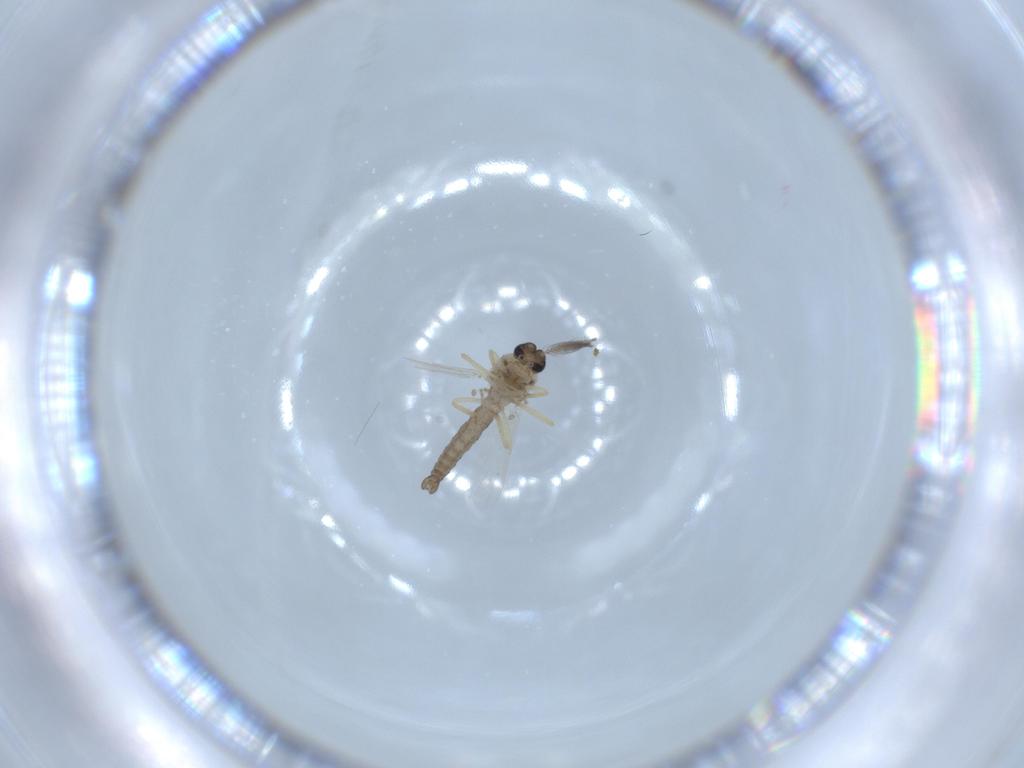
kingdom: Animalia
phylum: Arthropoda
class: Insecta
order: Diptera
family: Ceratopogonidae
